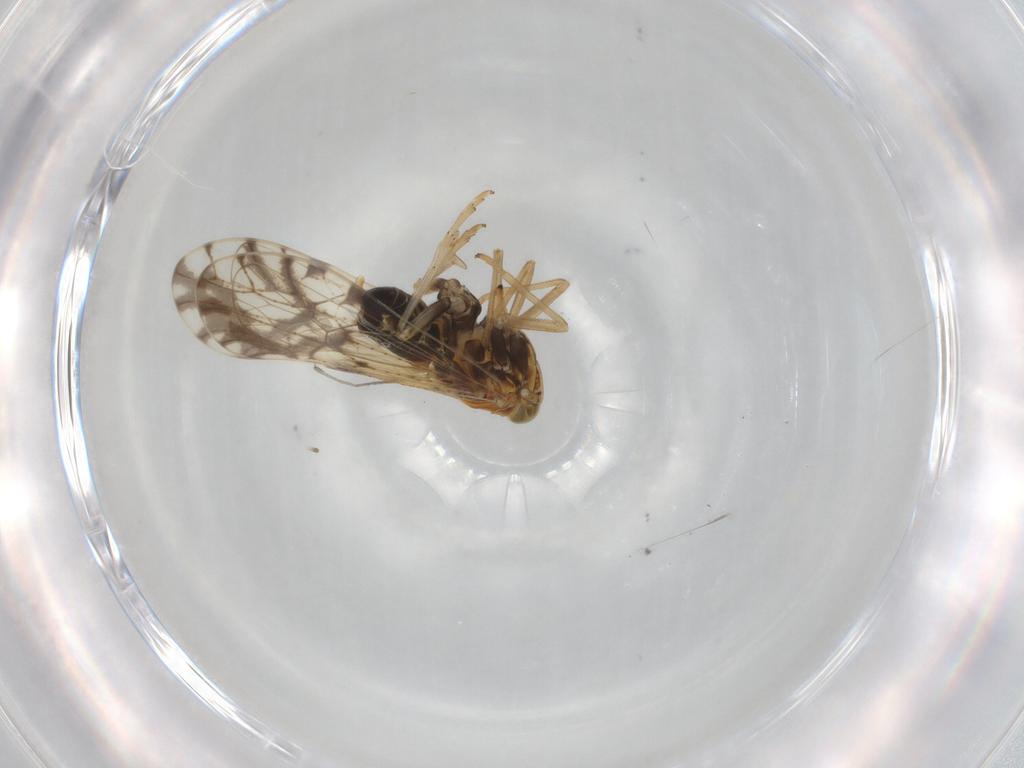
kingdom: Animalia
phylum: Arthropoda
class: Insecta
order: Hemiptera
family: Delphacidae
